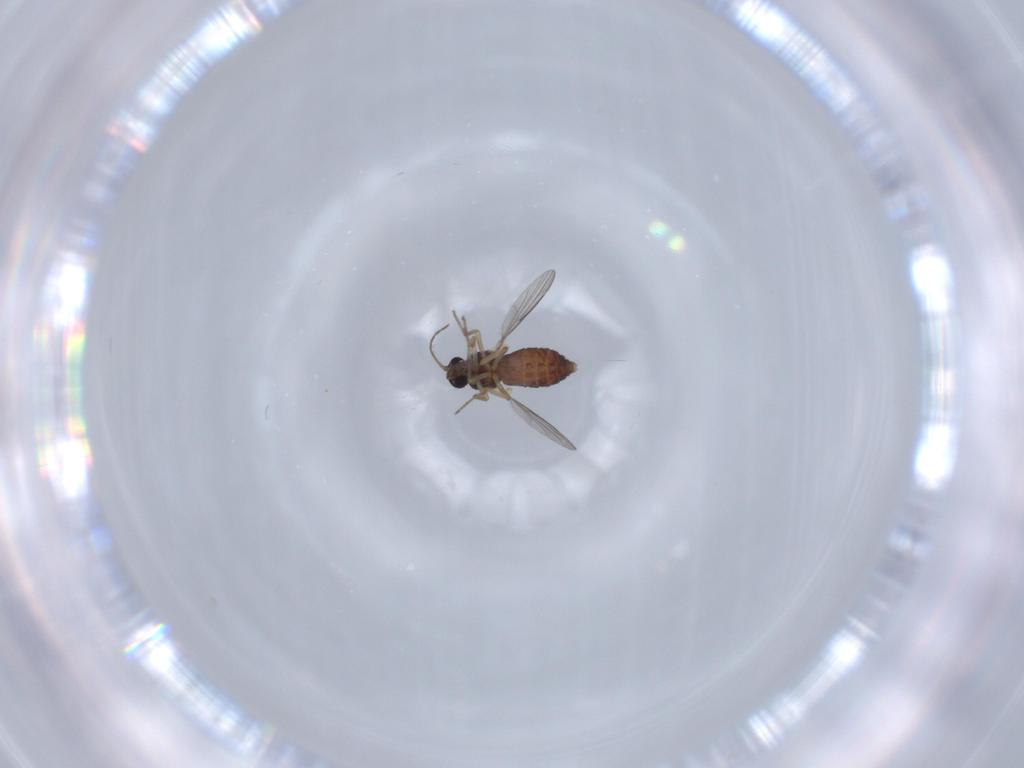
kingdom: Animalia
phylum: Arthropoda
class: Insecta
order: Diptera
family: Ceratopogonidae
